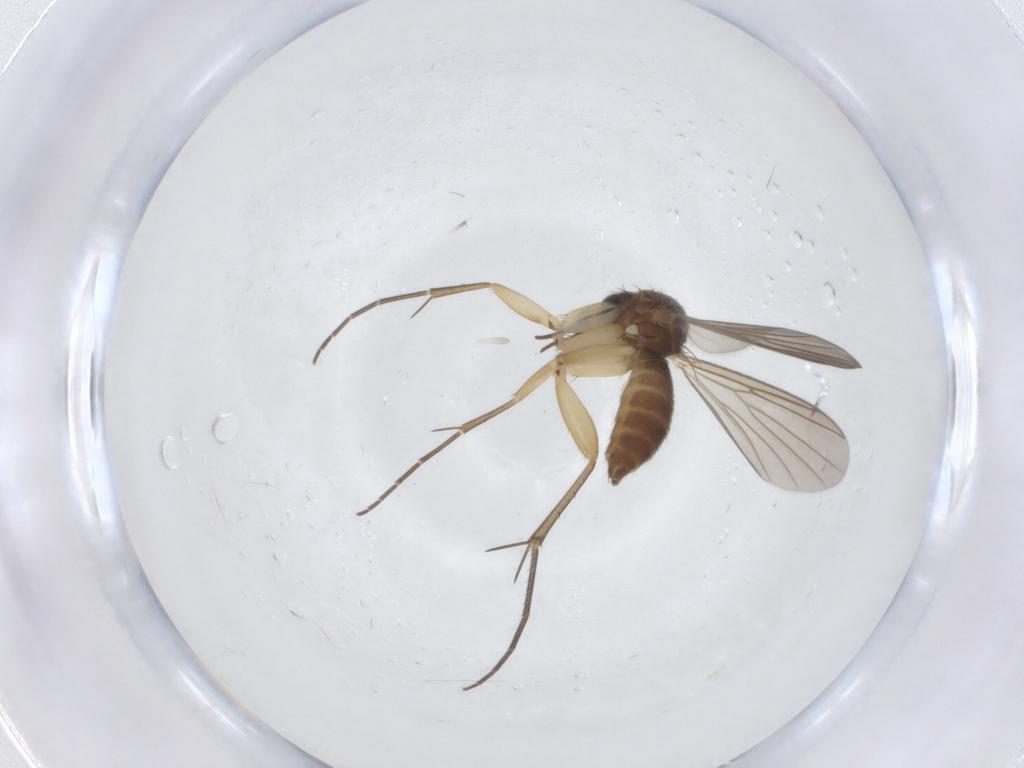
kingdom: Animalia
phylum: Arthropoda
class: Insecta
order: Diptera
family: Mycetophilidae
